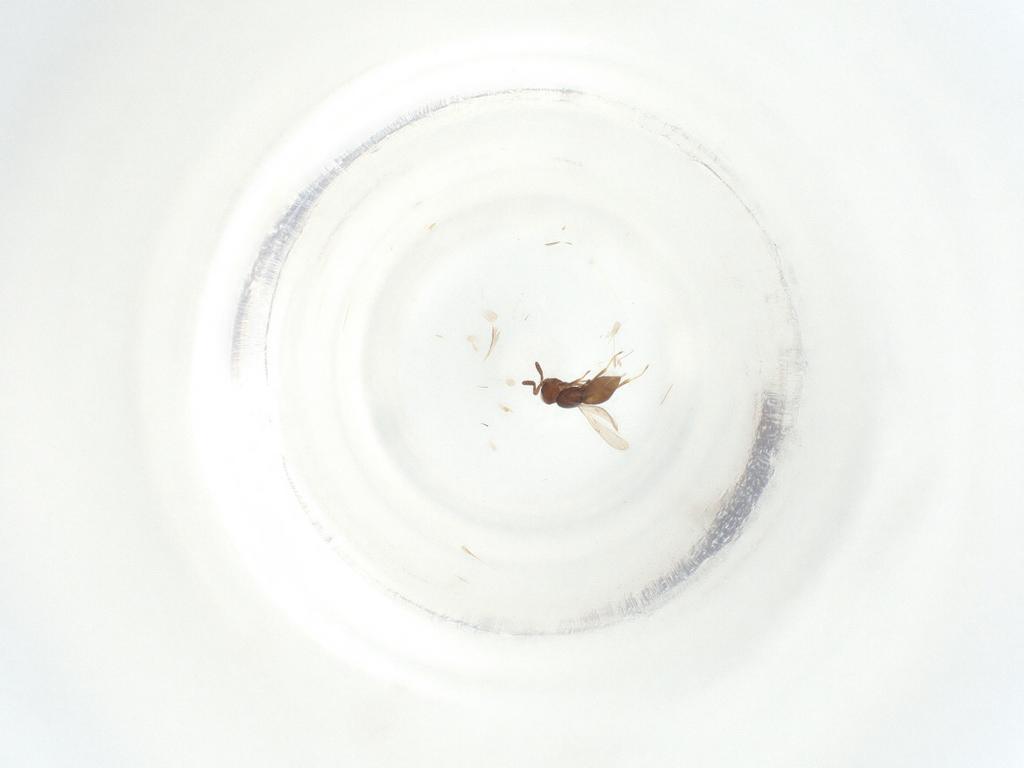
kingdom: Animalia
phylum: Arthropoda
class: Insecta
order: Hymenoptera
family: Scelionidae
